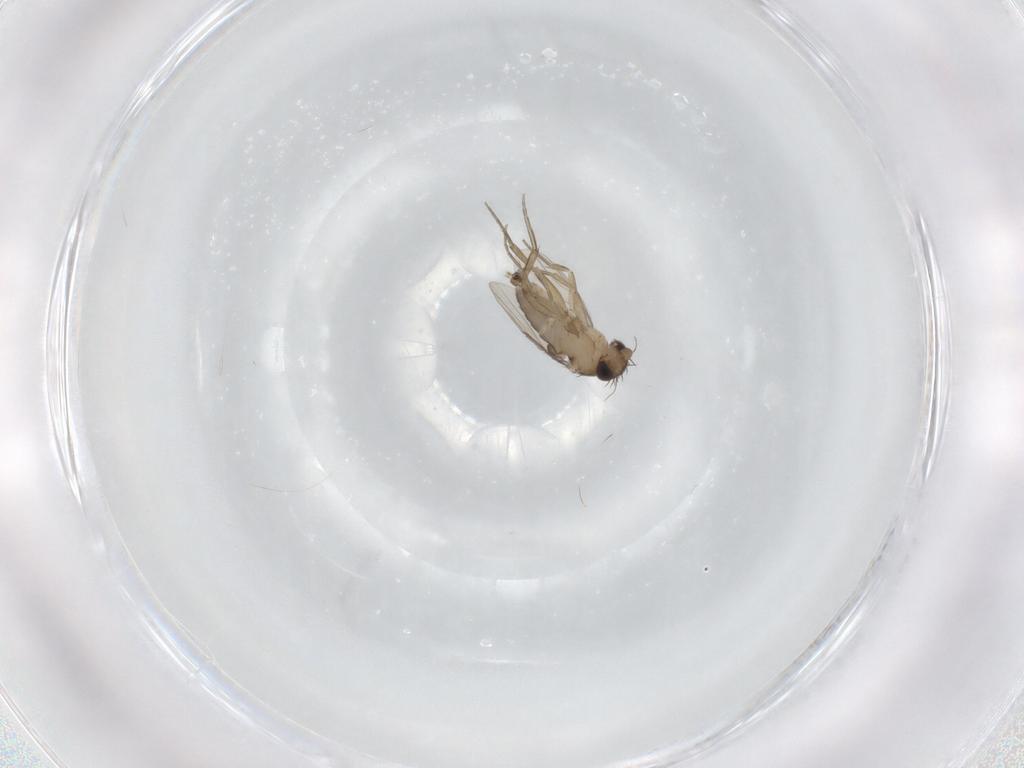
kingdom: Animalia
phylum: Arthropoda
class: Insecta
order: Diptera
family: Phoridae
